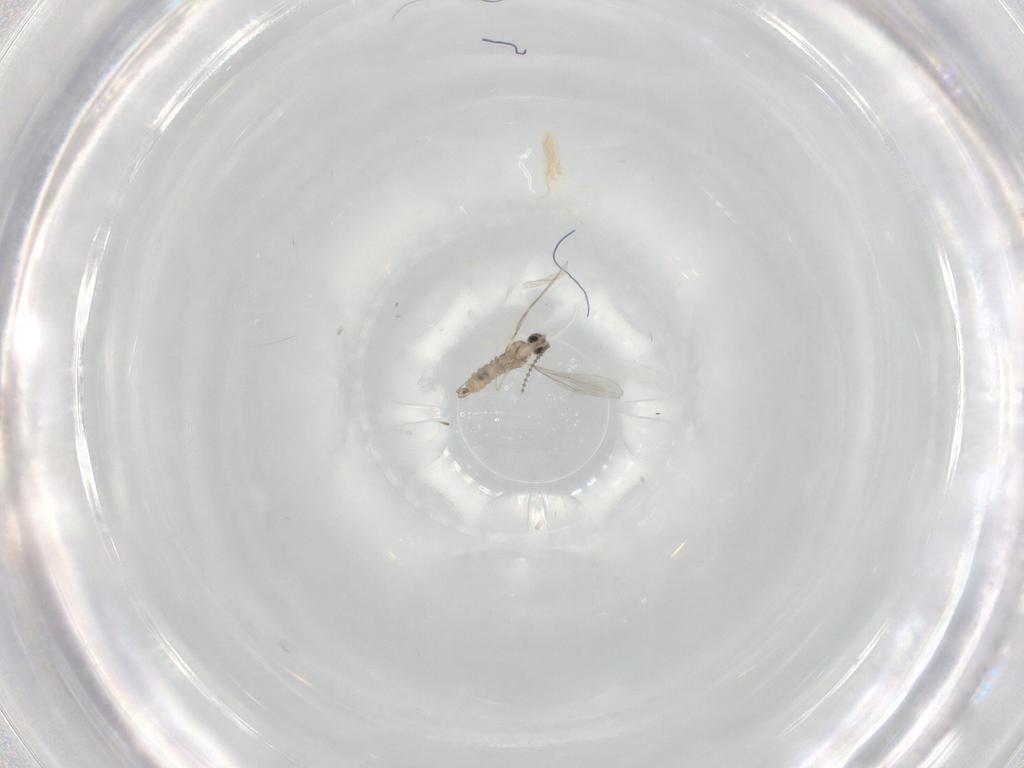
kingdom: Animalia
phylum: Arthropoda
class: Insecta
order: Diptera
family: Cecidomyiidae
